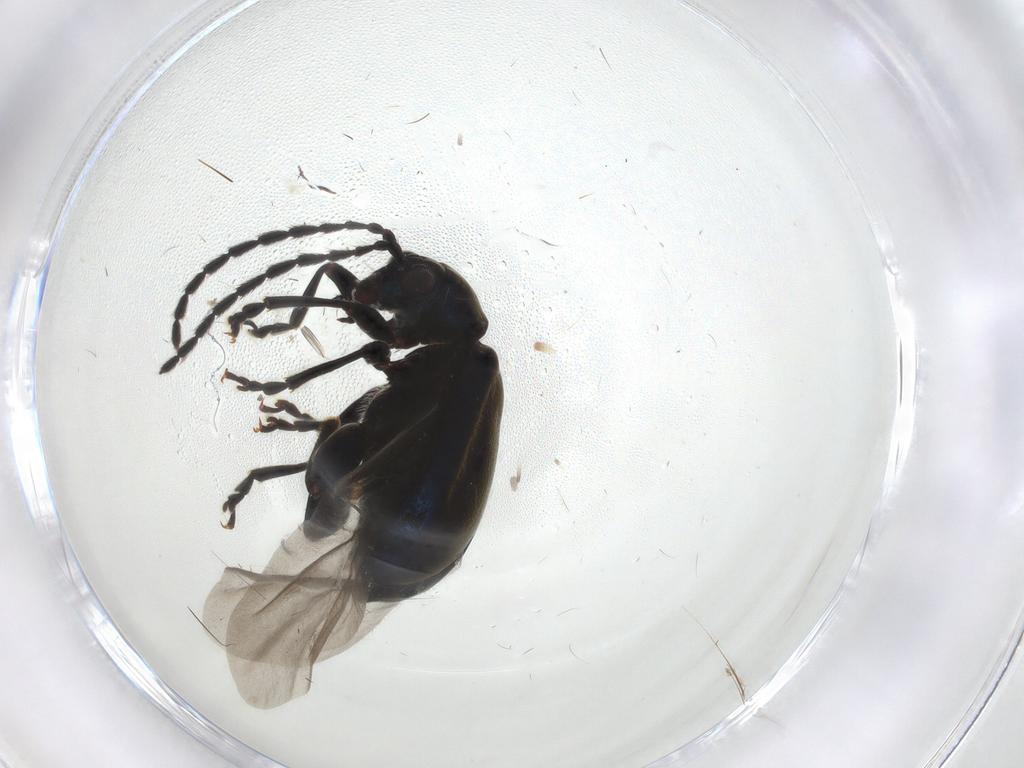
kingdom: Animalia
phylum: Arthropoda
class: Insecta
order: Coleoptera
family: Chrysomelidae
